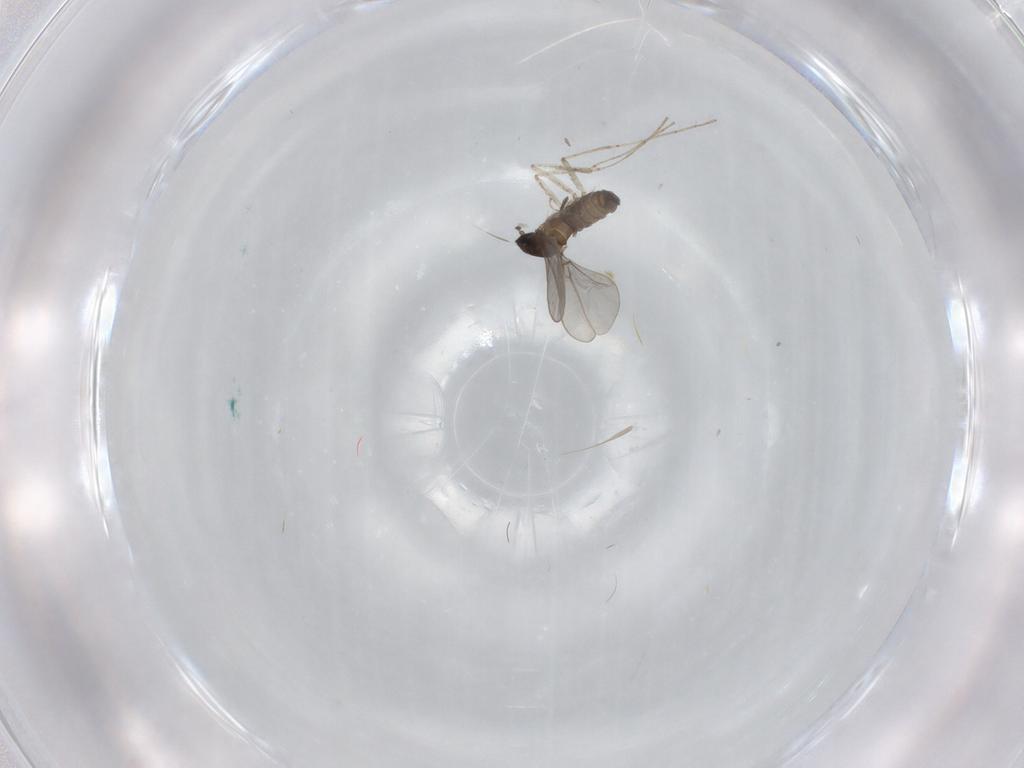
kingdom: Animalia
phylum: Arthropoda
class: Insecta
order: Diptera
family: Cecidomyiidae
